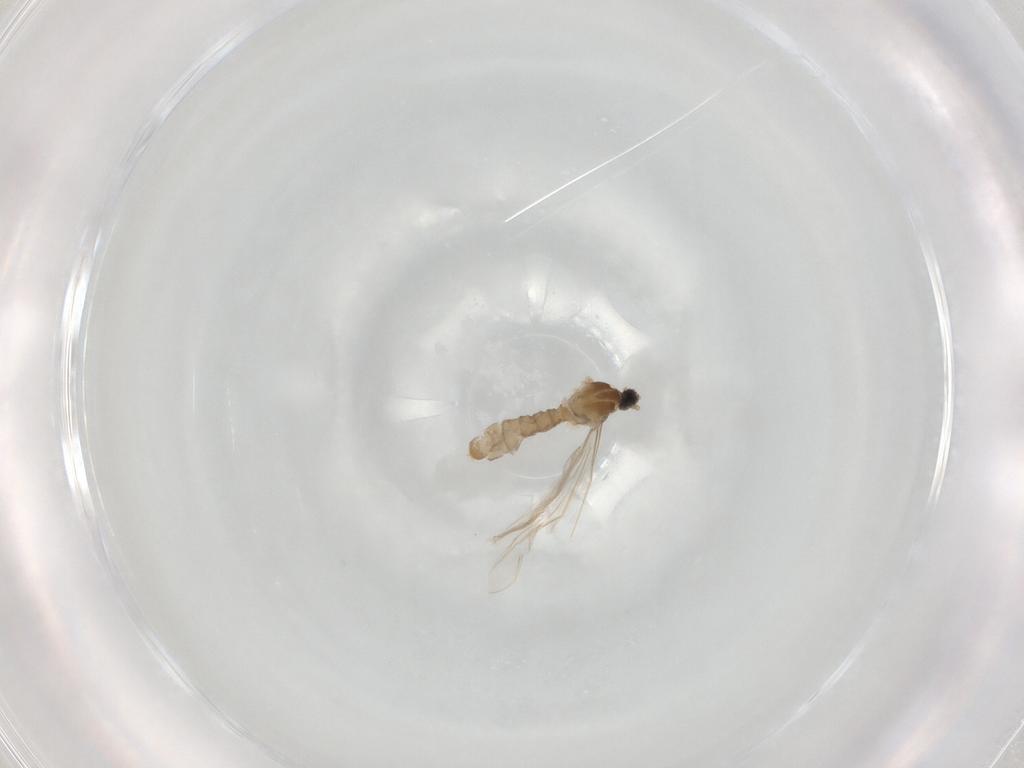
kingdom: Animalia
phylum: Arthropoda
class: Insecta
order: Diptera
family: Cecidomyiidae
